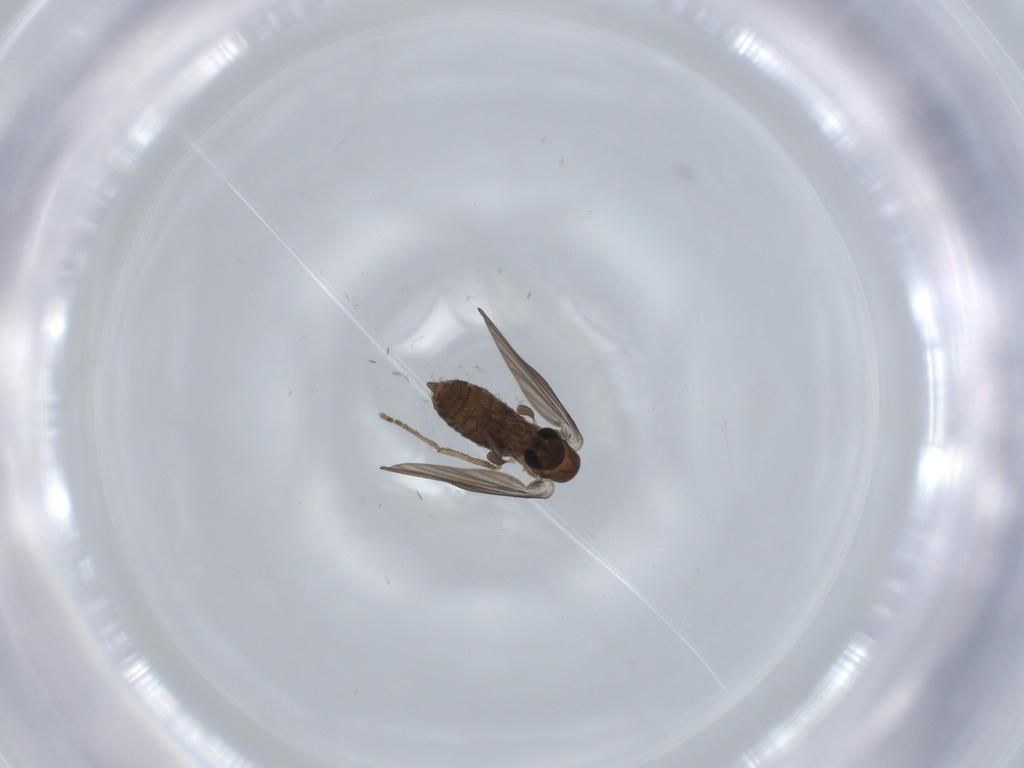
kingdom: Animalia
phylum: Arthropoda
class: Insecta
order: Diptera
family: Psychodidae
